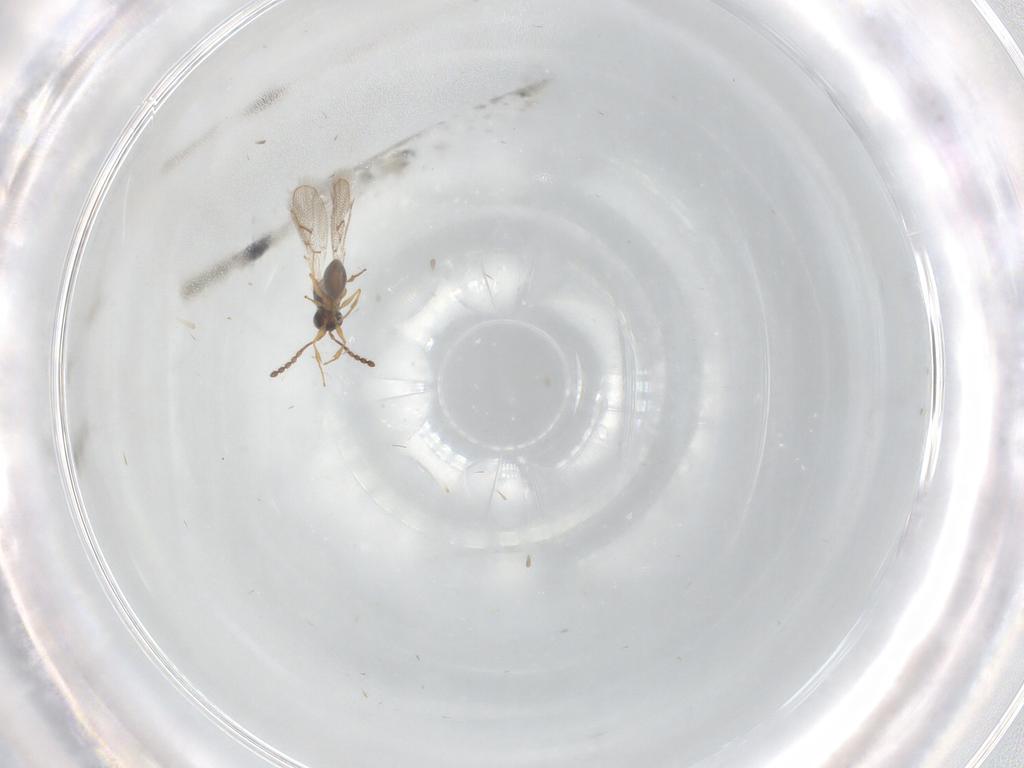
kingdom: Animalia
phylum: Arthropoda
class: Insecta
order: Hymenoptera
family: Figitidae
